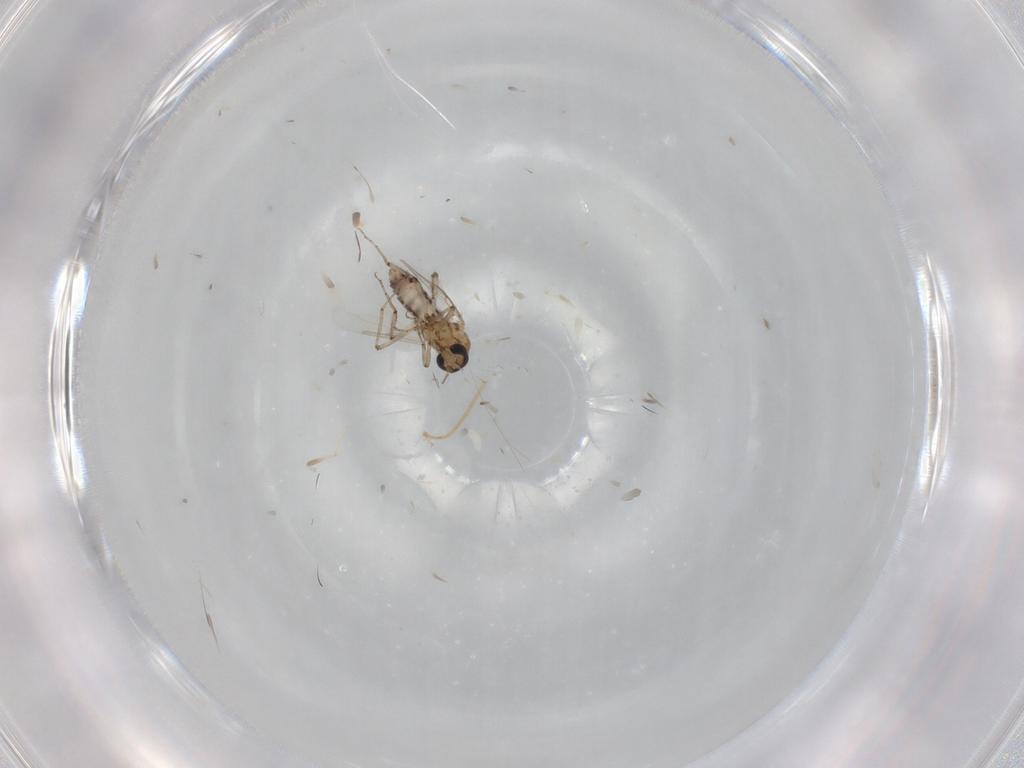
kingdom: Animalia
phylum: Arthropoda
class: Insecta
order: Diptera
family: Ceratopogonidae
